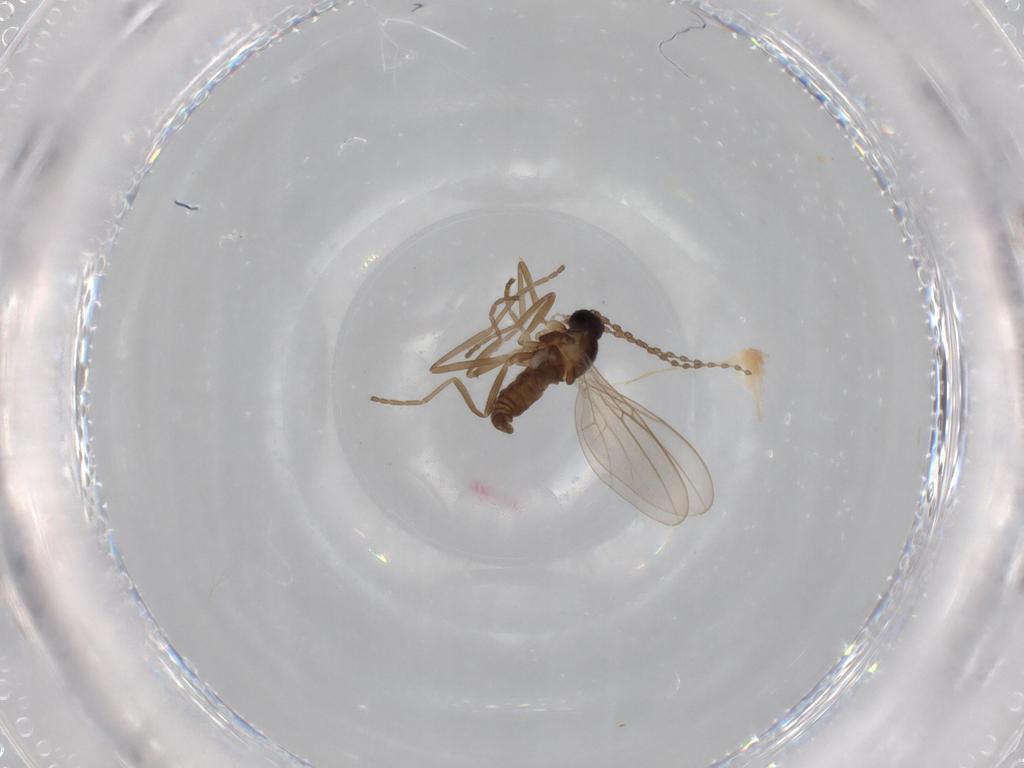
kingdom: Animalia
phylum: Arthropoda
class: Insecta
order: Diptera
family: Cecidomyiidae
